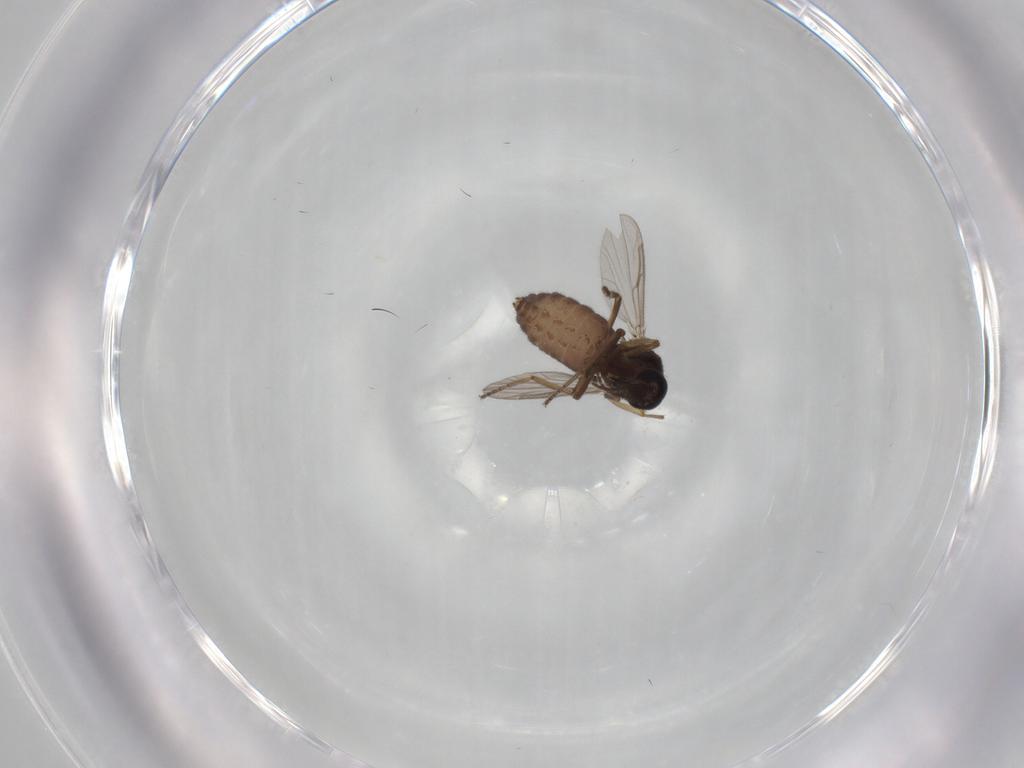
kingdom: Animalia
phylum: Arthropoda
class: Insecta
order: Diptera
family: Ceratopogonidae
